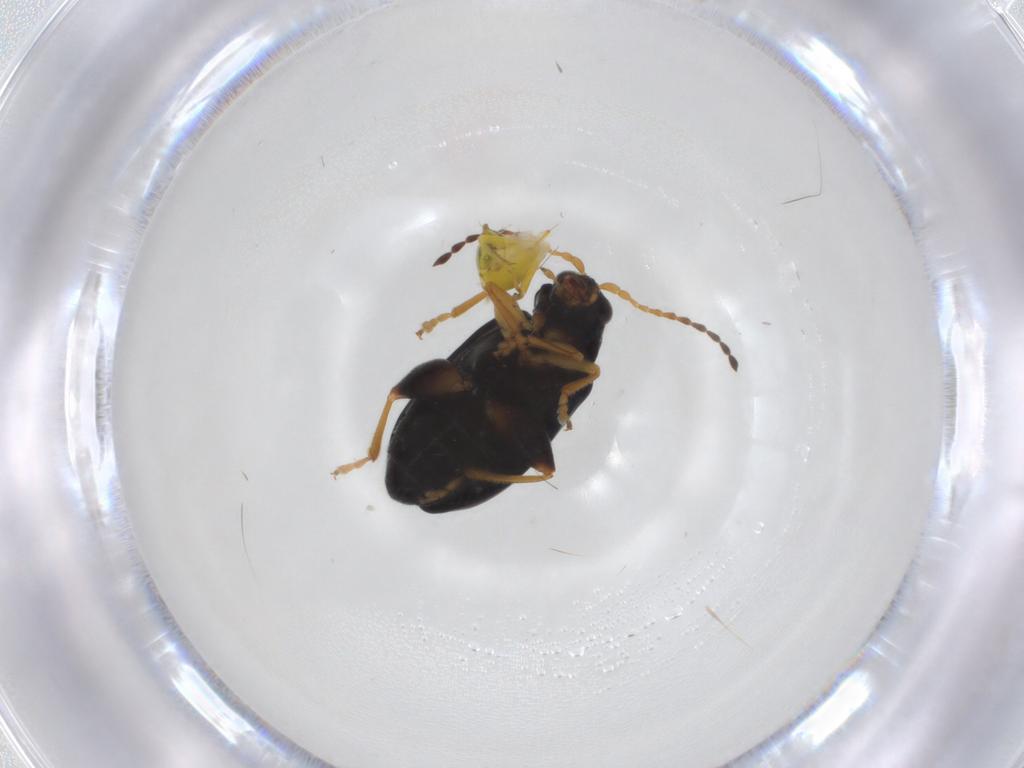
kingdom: Animalia
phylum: Arthropoda
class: Insecta
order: Coleoptera
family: Chrysomelidae
